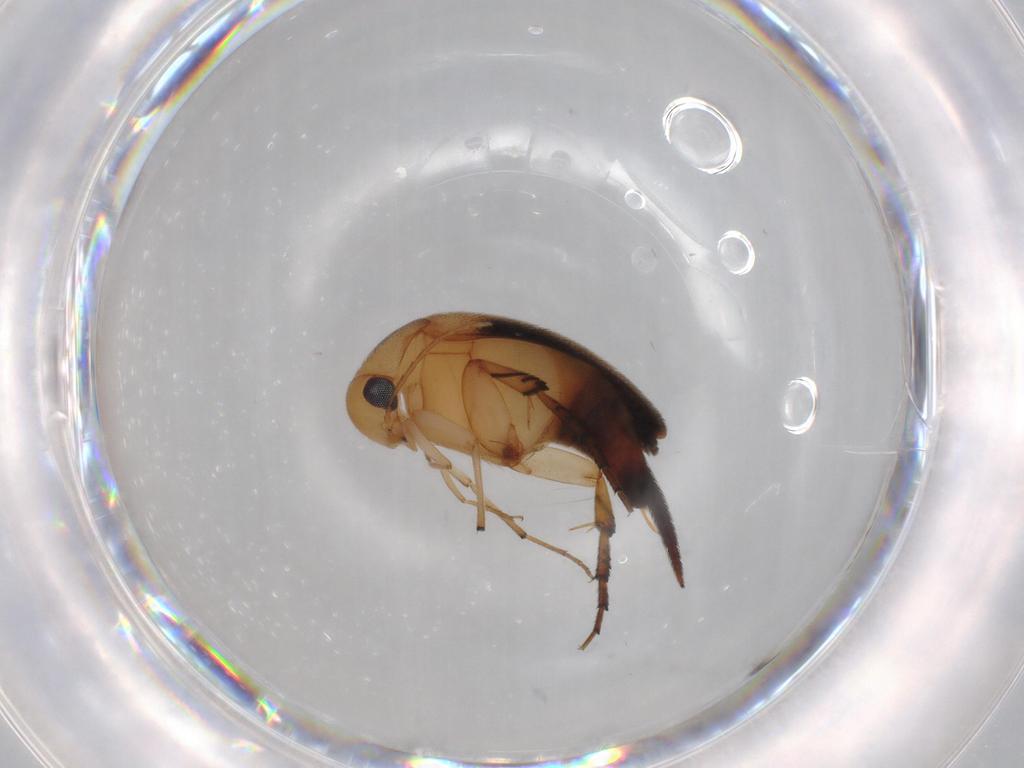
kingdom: Animalia
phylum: Arthropoda
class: Insecta
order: Coleoptera
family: Mordellidae
